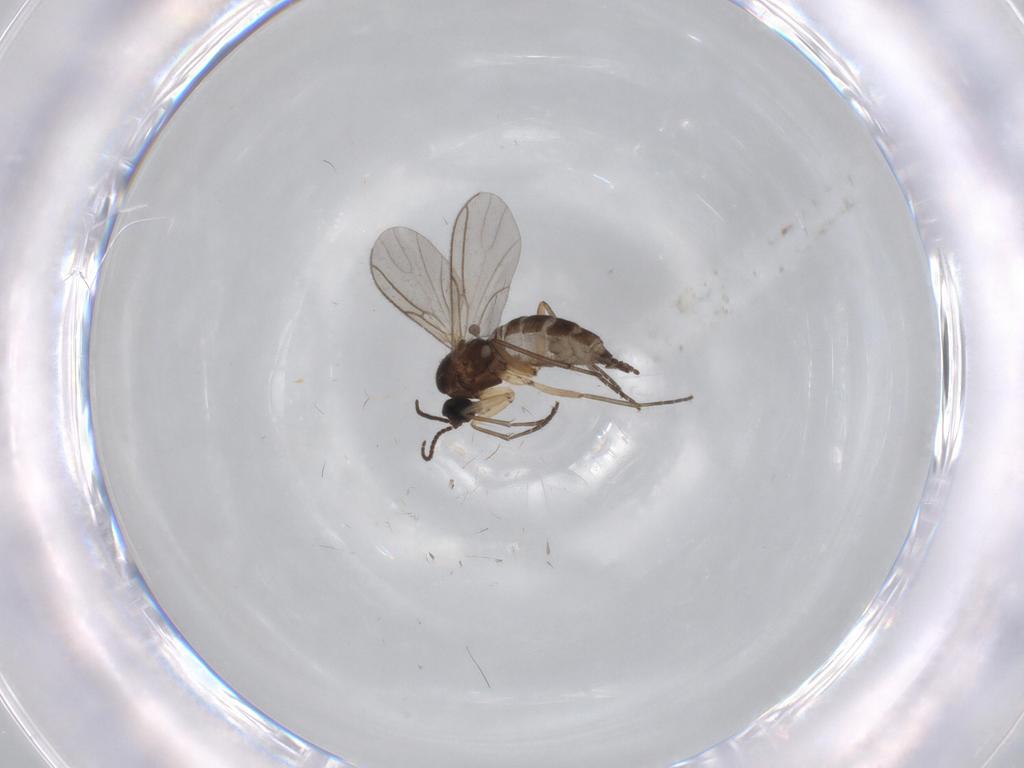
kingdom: Animalia
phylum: Arthropoda
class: Insecta
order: Diptera
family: Sciaridae
